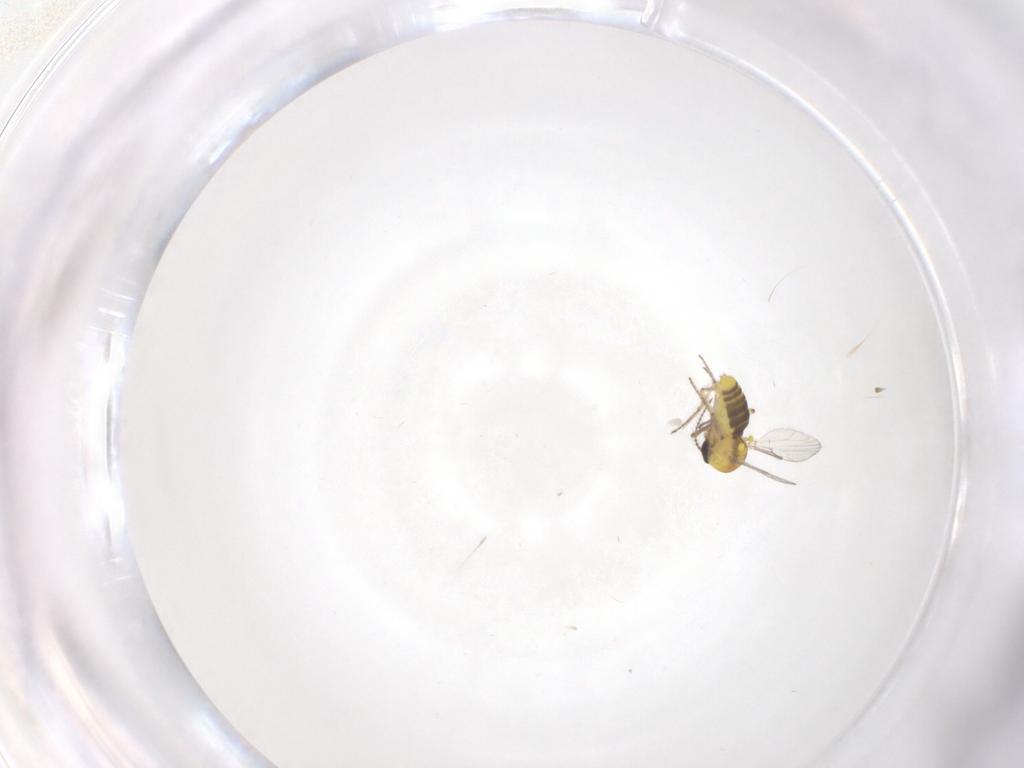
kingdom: Animalia
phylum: Arthropoda
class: Insecta
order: Diptera
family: Ceratopogonidae
